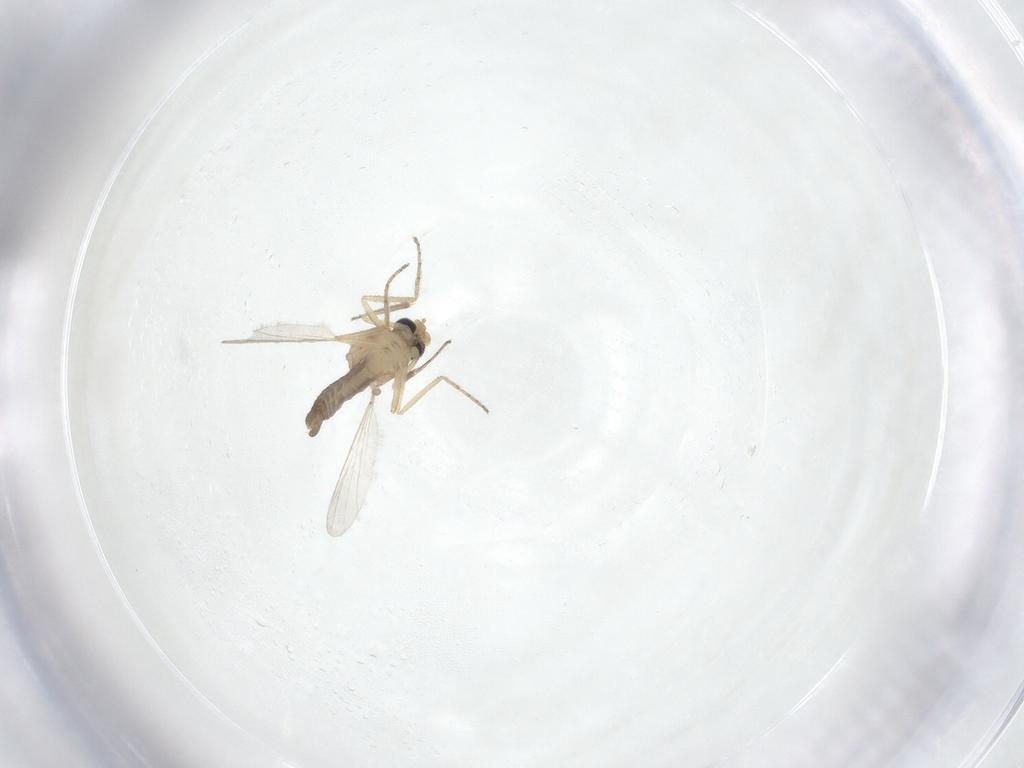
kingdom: Animalia
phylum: Arthropoda
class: Insecta
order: Diptera
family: Ceratopogonidae
